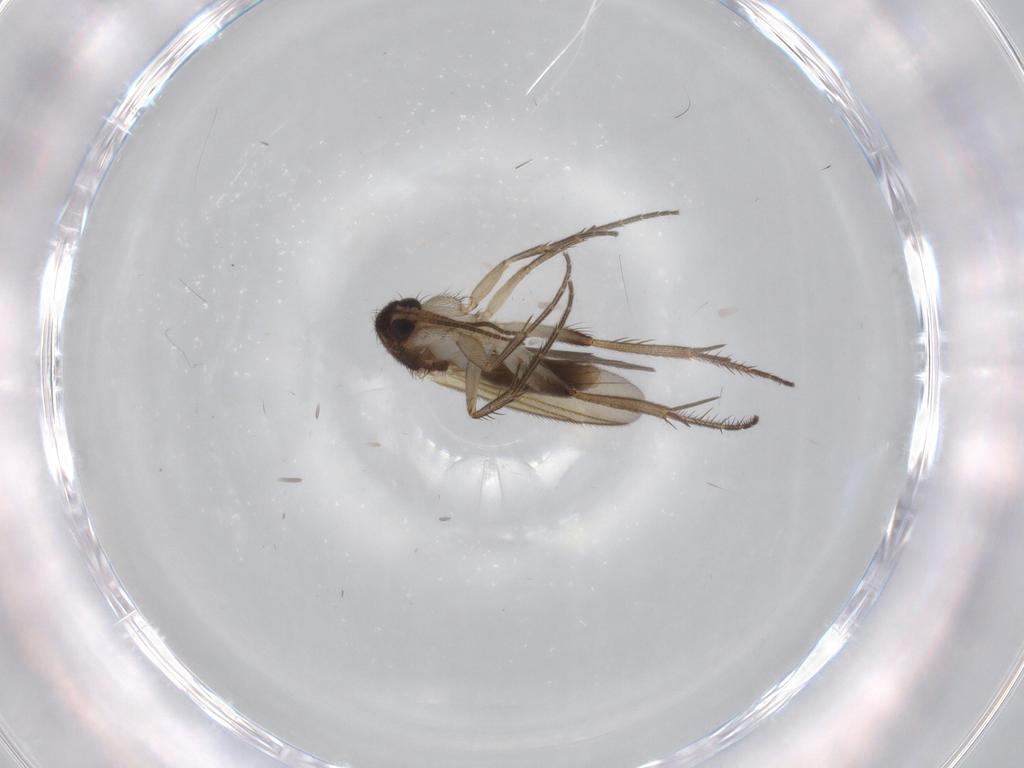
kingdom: Animalia
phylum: Arthropoda
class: Insecta
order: Diptera
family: Mycetophilidae
